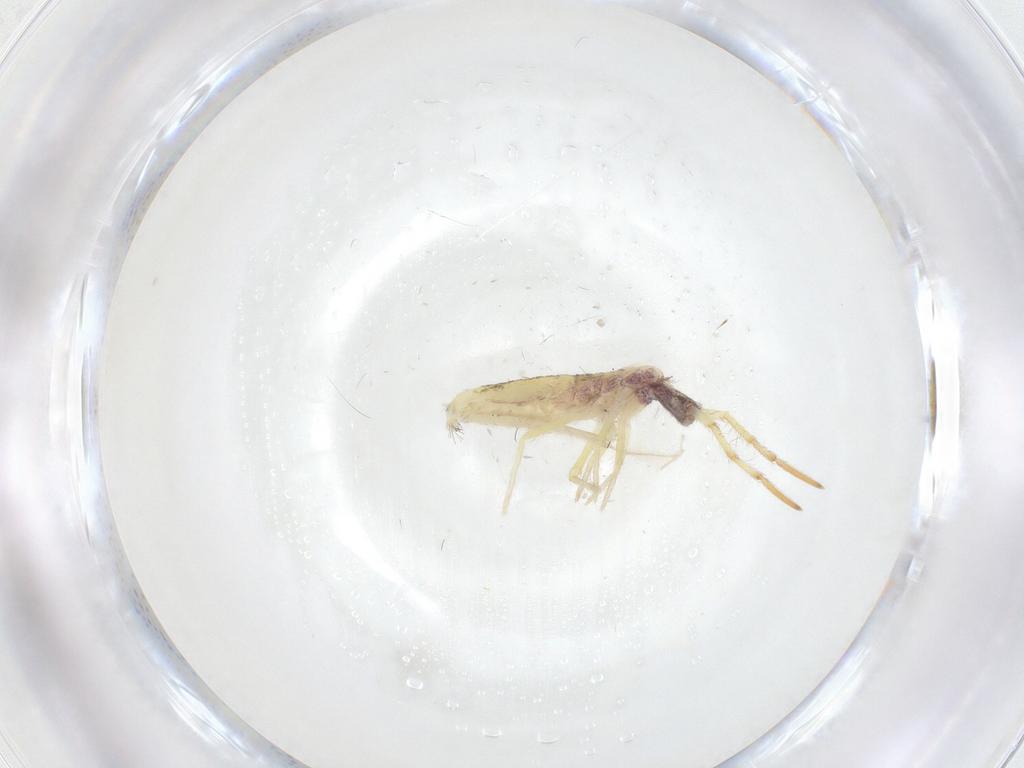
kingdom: Animalia
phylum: Arthropoda
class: Collembola
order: Entomobryomorpha
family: Entomobryidae
